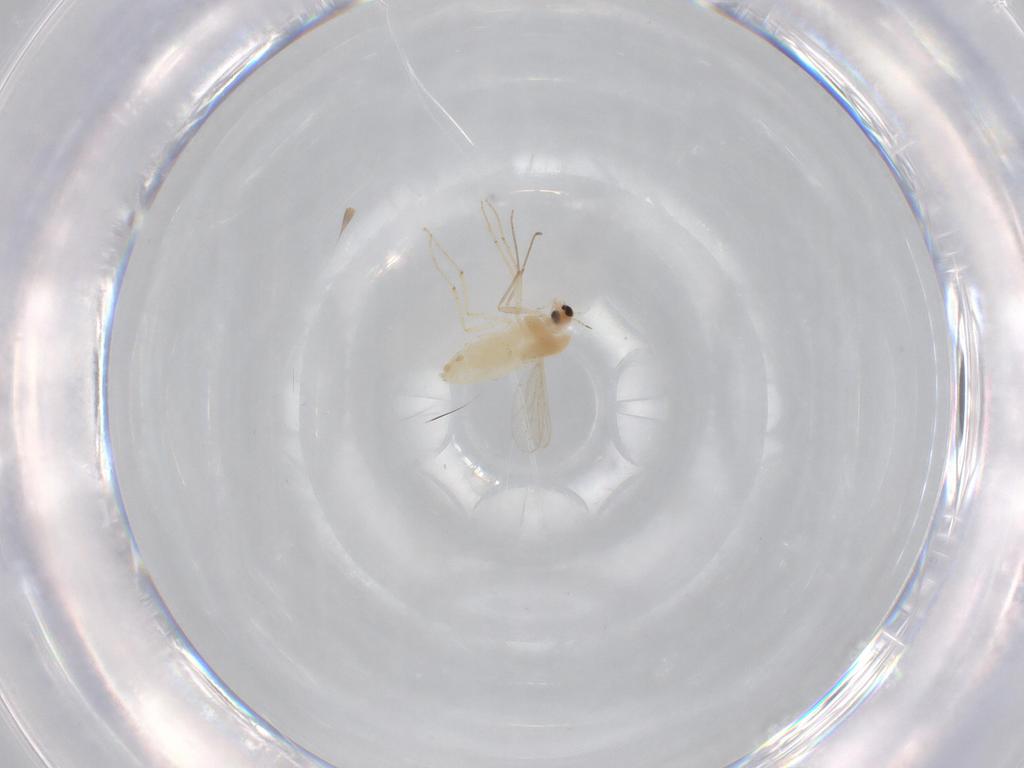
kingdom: Animalia
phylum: Arthropoda
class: Insecta
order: Diptera
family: Chironomidae
